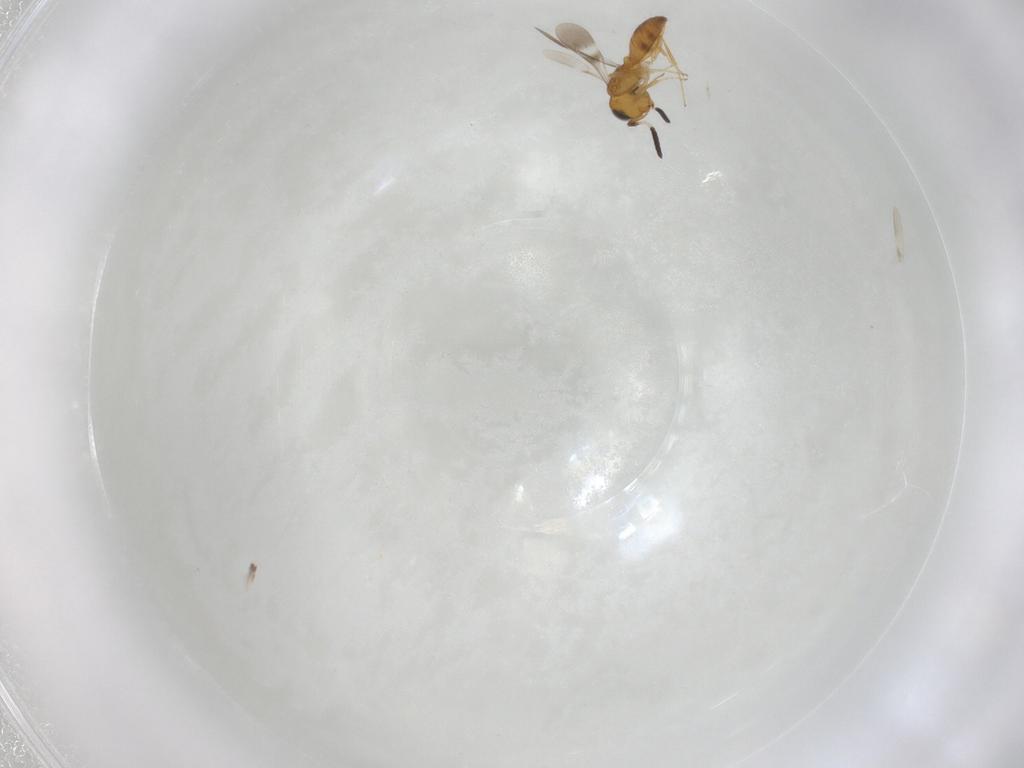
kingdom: Animalia
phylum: Arthropoda
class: Insecta
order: Hymenoptera
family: Scelionidae
